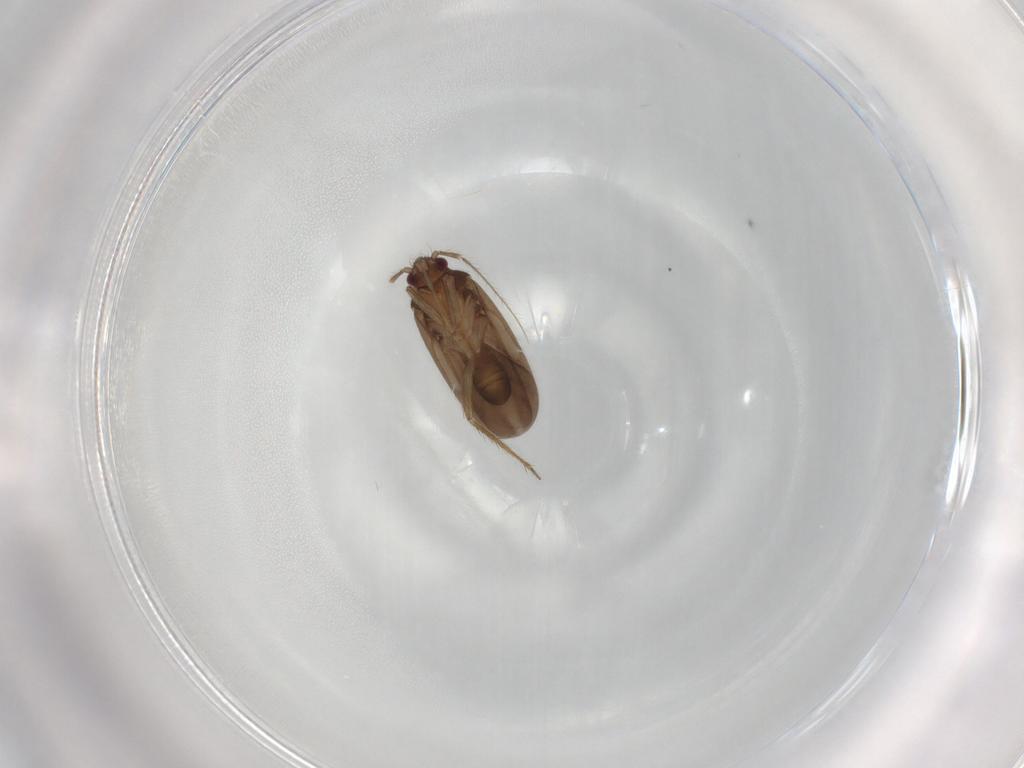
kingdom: Animalia
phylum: Arthropoda
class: Insecta
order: Hemiptera
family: Ceratocombidae
